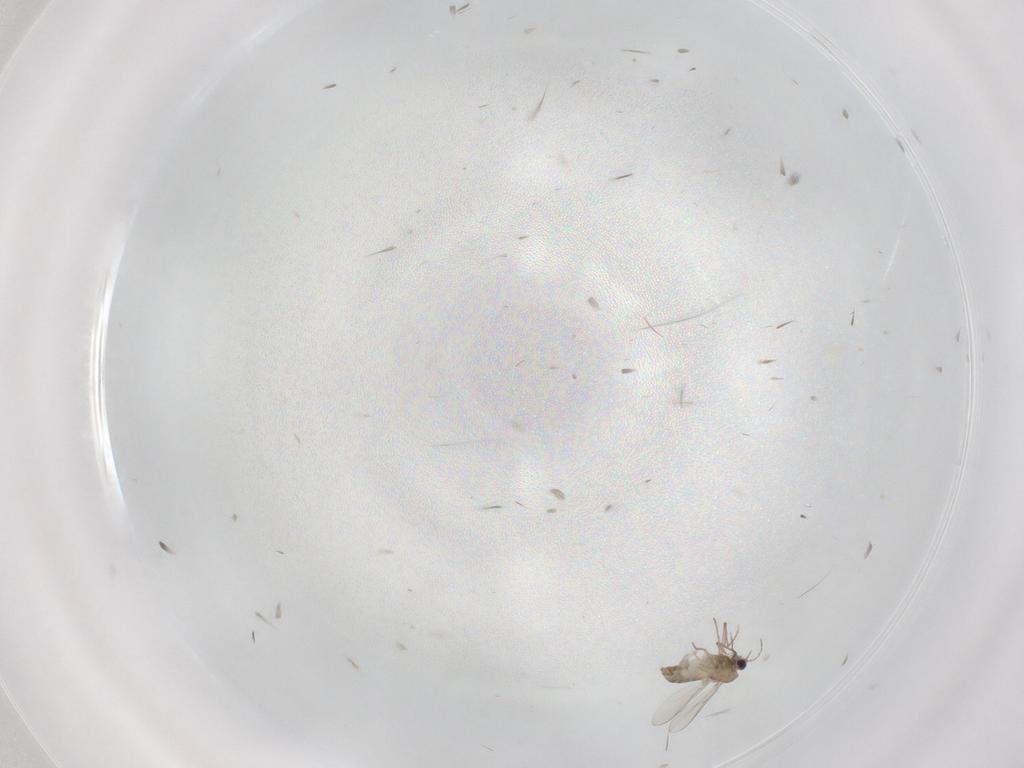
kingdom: Animalia
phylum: Arthropoda
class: Insecta
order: Diptera
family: Chironomidae
